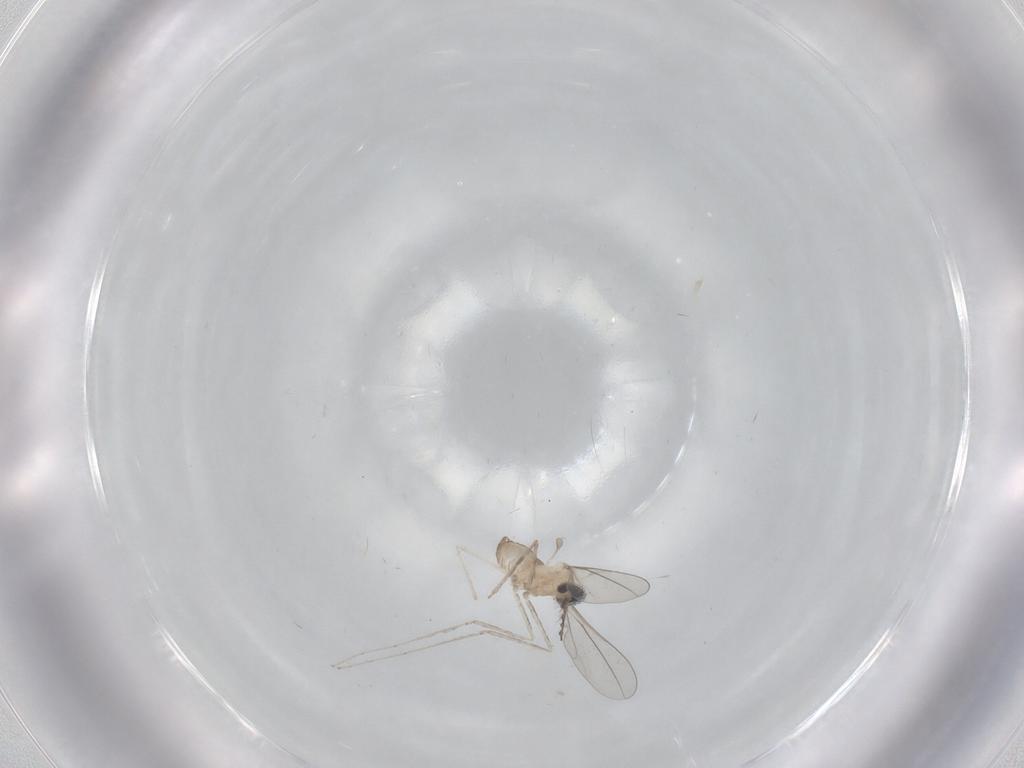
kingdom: Animalia
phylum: Arthropoda
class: Insecta
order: Diptera
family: Cecidomyiidae
